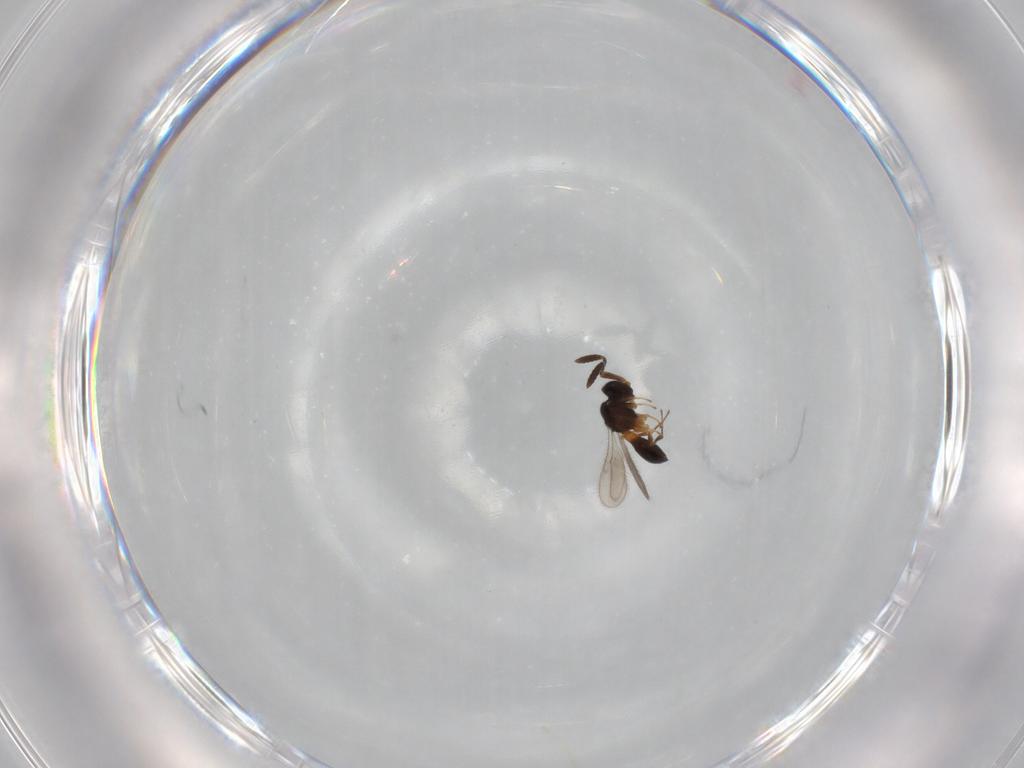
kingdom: Animalia
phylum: Arthropoda
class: Insecta
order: Hymenoptera
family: Scelionidae
